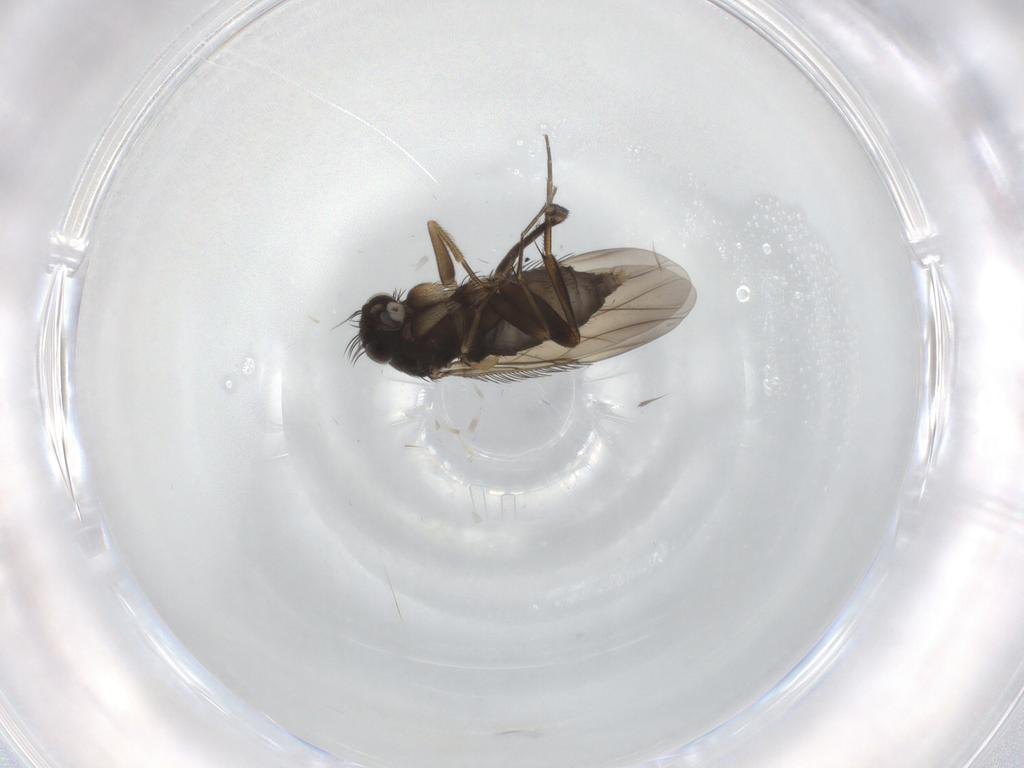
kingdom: Animalia
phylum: Arthropoda
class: Insecta
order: Diptera
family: Phoridae
